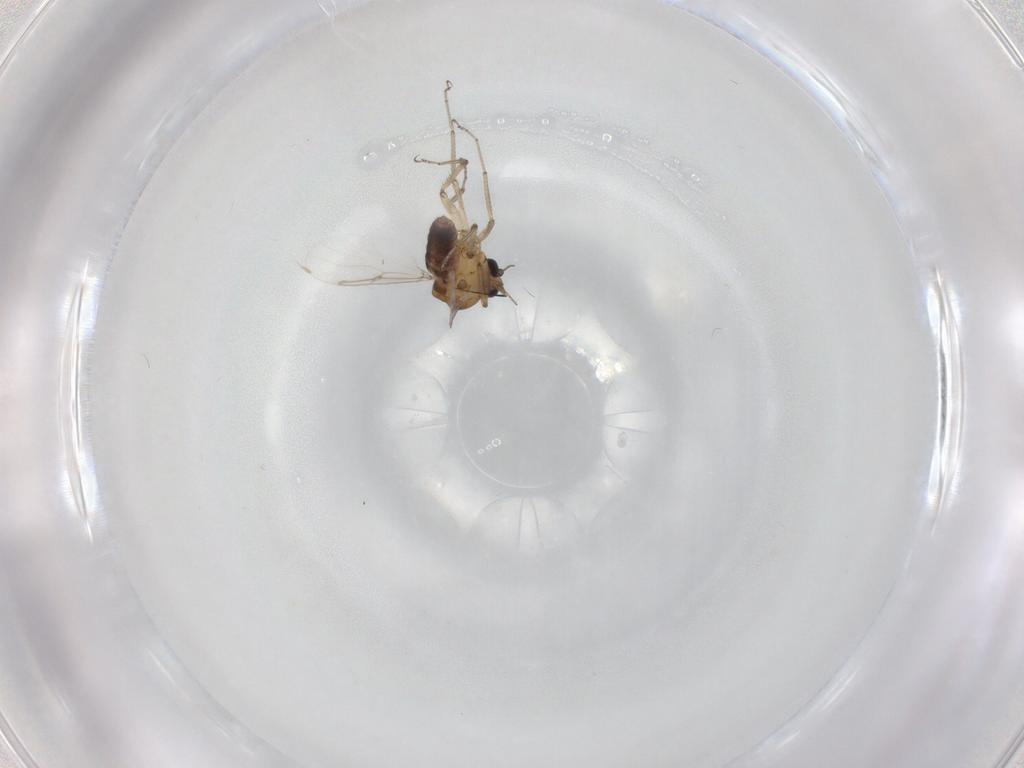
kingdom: Animalia
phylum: Arthropoda
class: Insecta
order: Diptera
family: Ceratopogonidae
